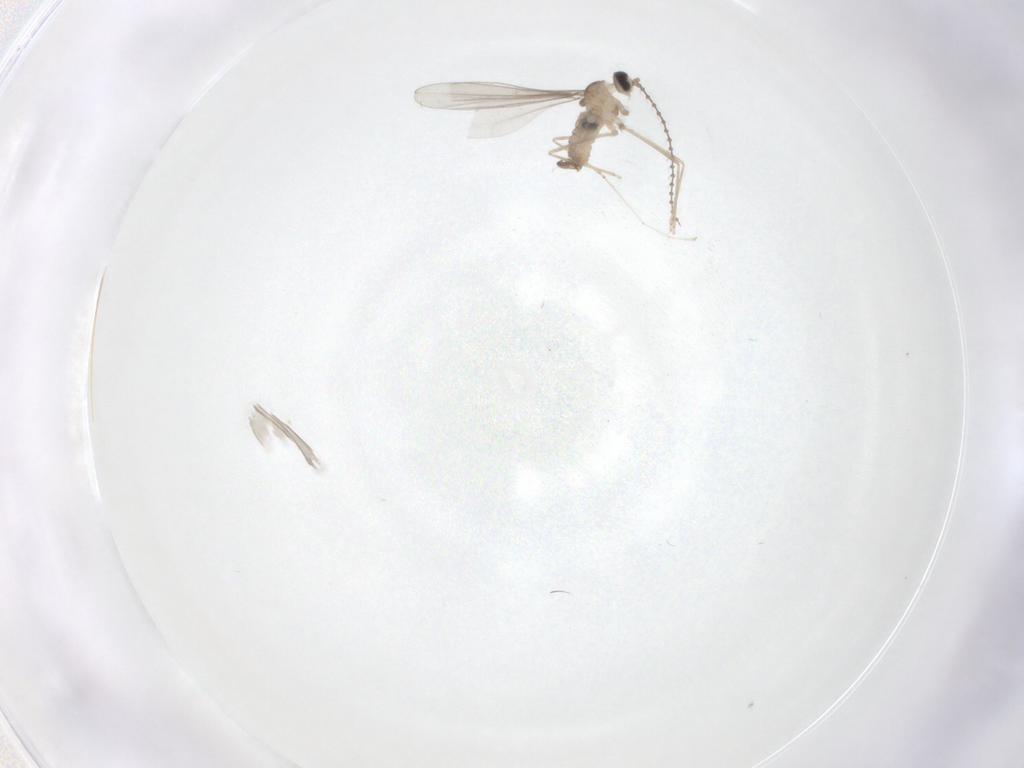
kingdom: Animalia
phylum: Arthropoda
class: Insecta
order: Diptera
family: Cecidomyiidae
